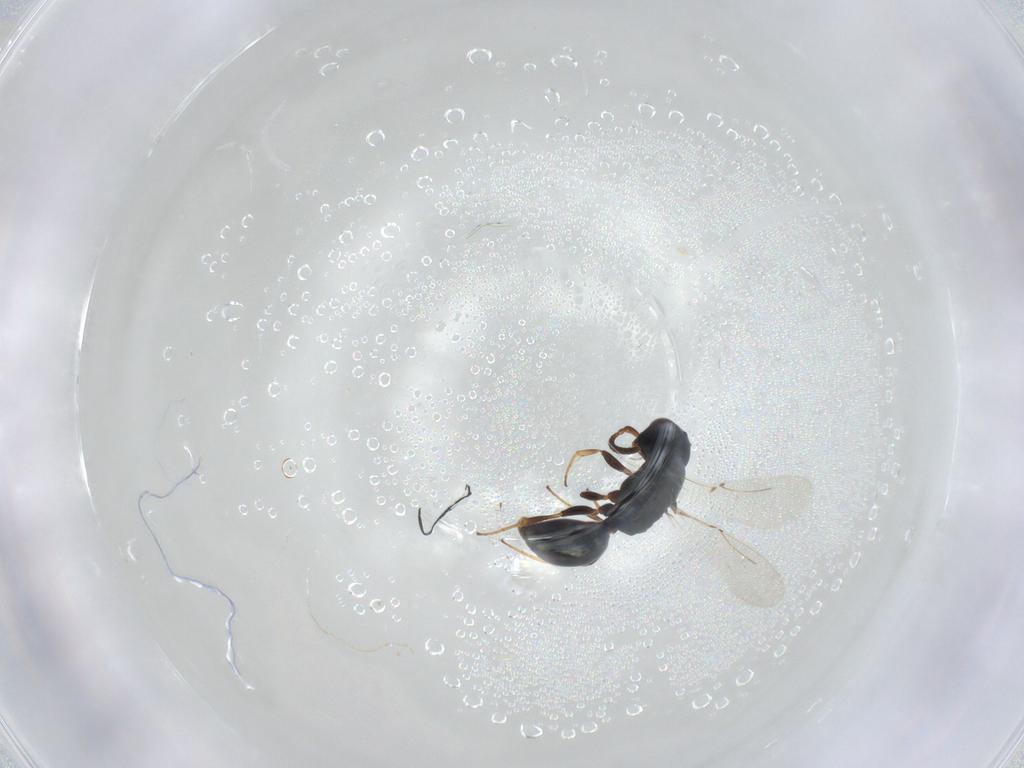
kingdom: Animalia
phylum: Arthropoda
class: Insecta
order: Hymenoptera
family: Bethylidae
